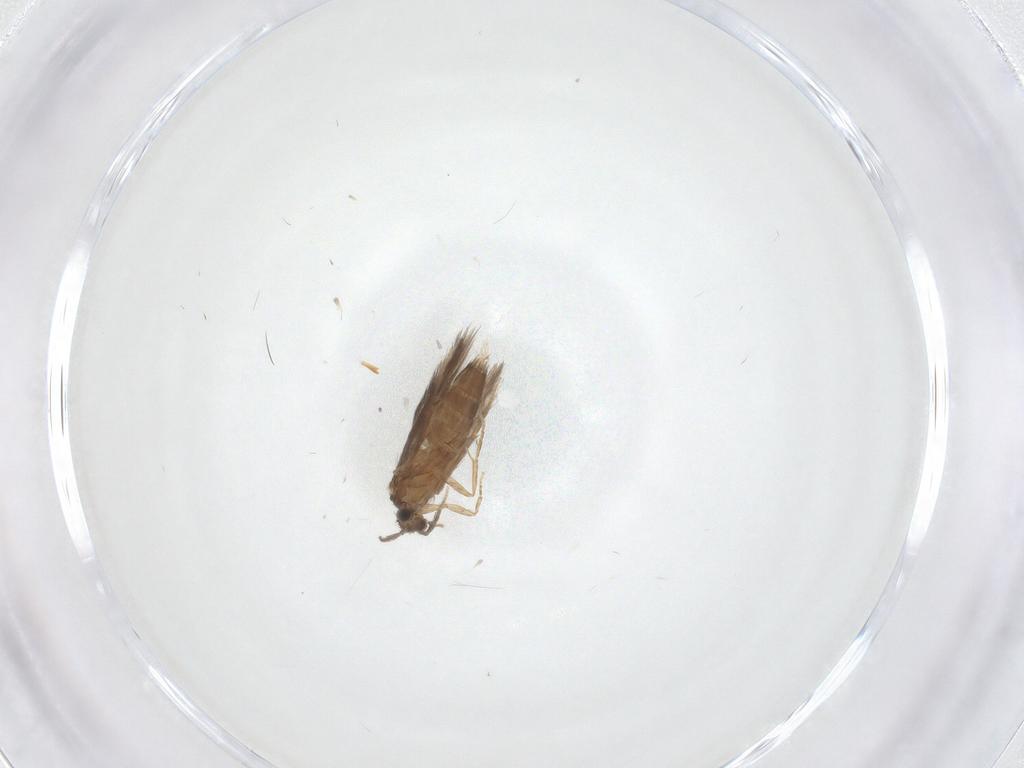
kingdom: Animalia
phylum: Arthropoda
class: Insecta
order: Trichoptera
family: Hydroptilidae
